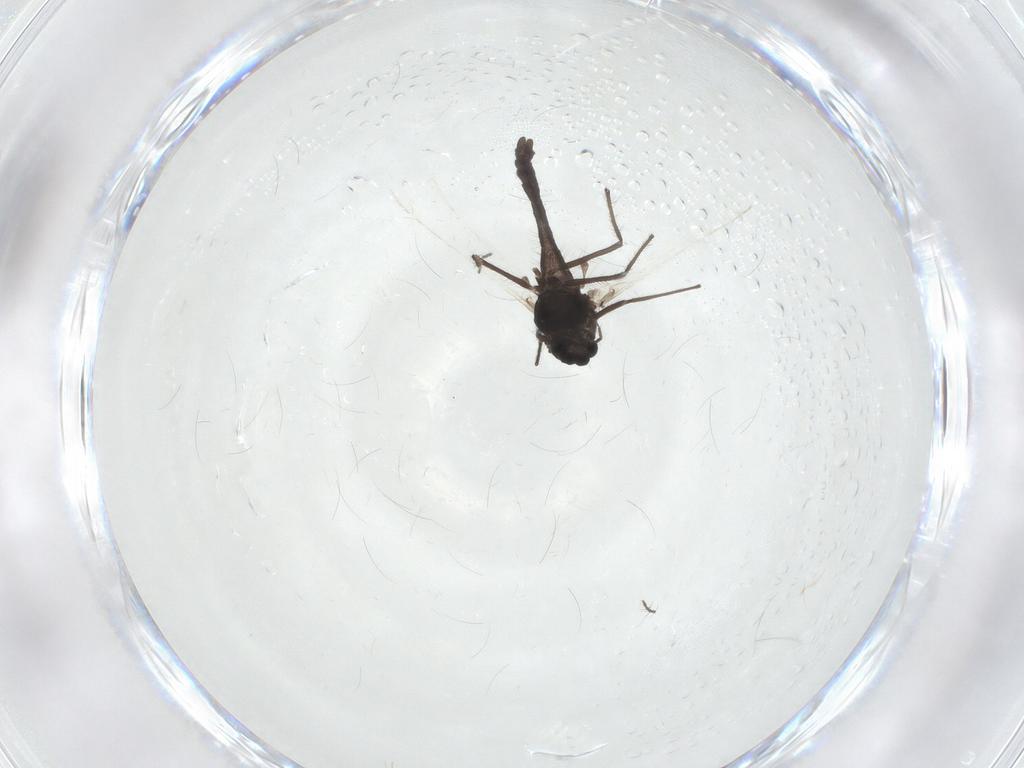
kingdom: Animalia
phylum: Arthropoda
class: Insecta
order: Diptera
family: Chironomidae
